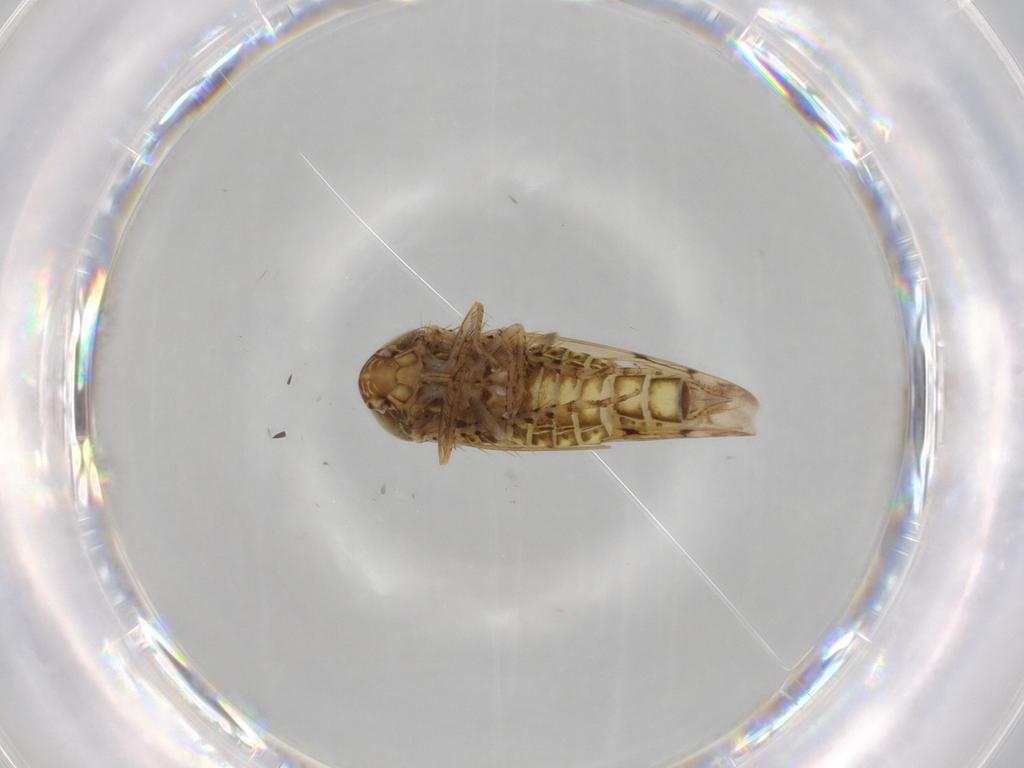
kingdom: Animalia
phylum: Arthropoda
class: Insecta
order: Hemiptera
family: Cicadellidae
